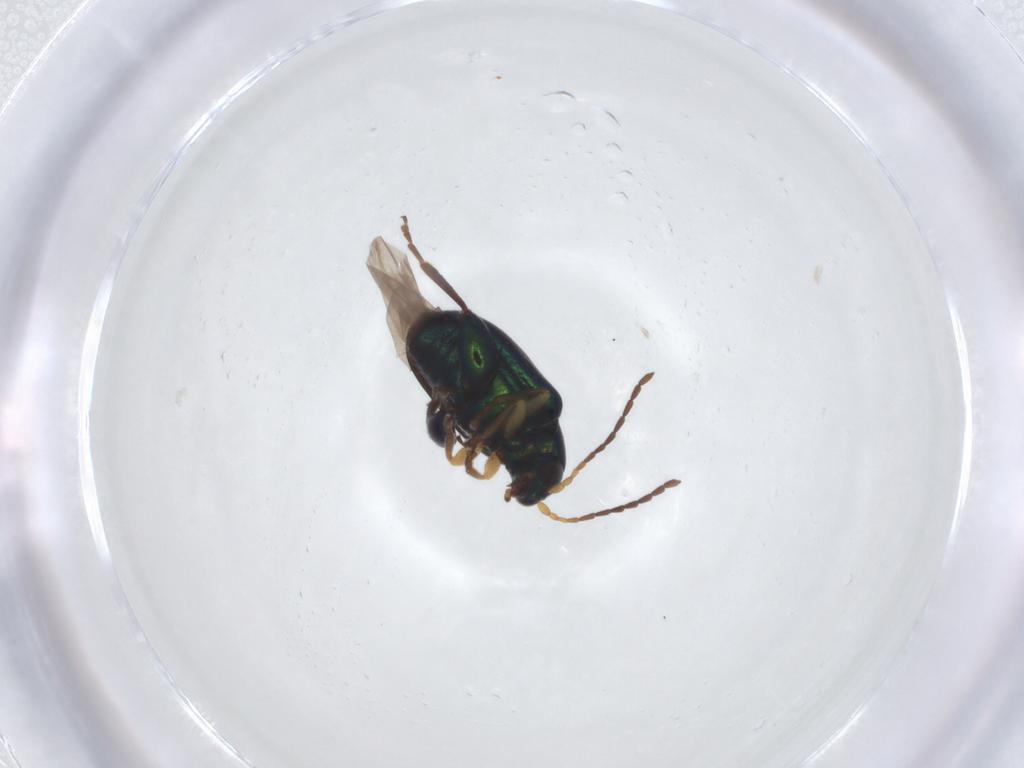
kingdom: Animalia
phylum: Arthropoda
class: Insecta
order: Coleoptera
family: Chrysomelidae
